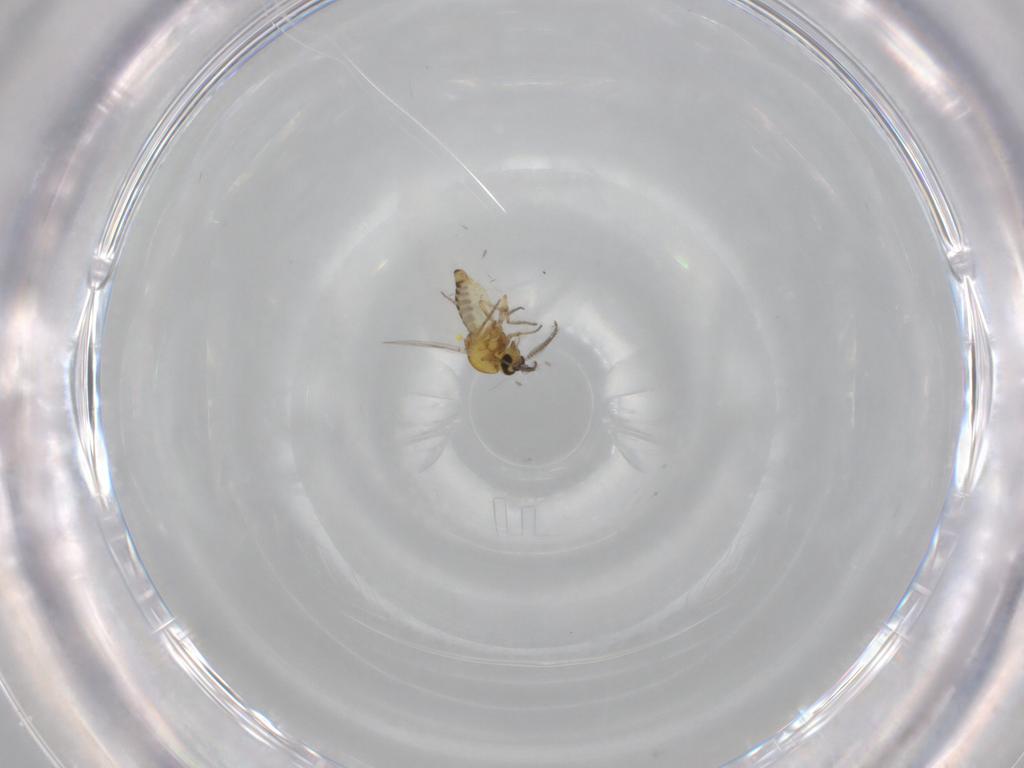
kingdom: Animalia
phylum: Arthropoda
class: Insecta
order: Diptera
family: Ceratopogonidae
